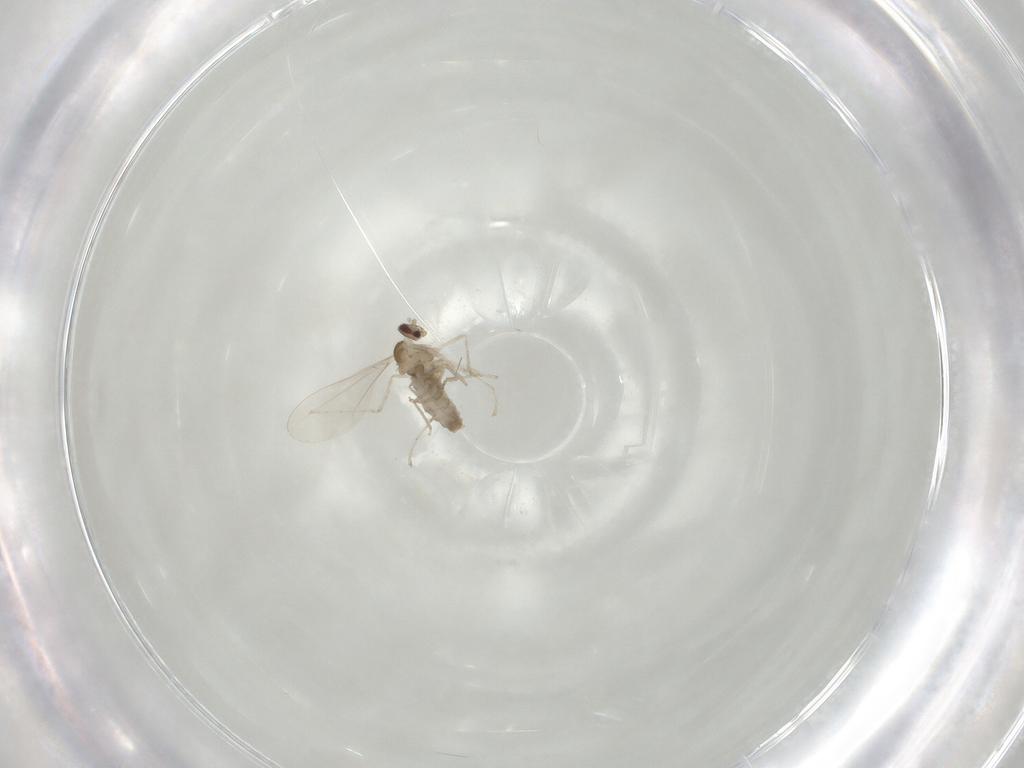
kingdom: Animalia
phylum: Arthropoda
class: Insecta
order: Diptera
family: Cecidomyiidae
